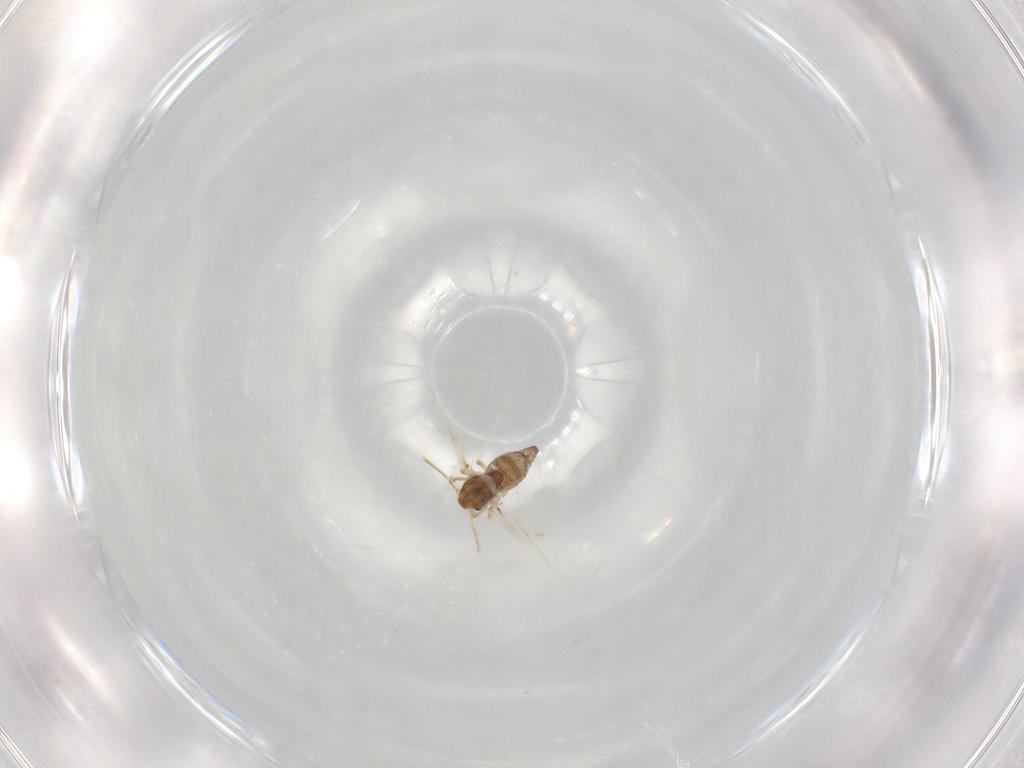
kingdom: Animalia
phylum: Arthropoda
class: Insecta
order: Diptera
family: Chironomidae
